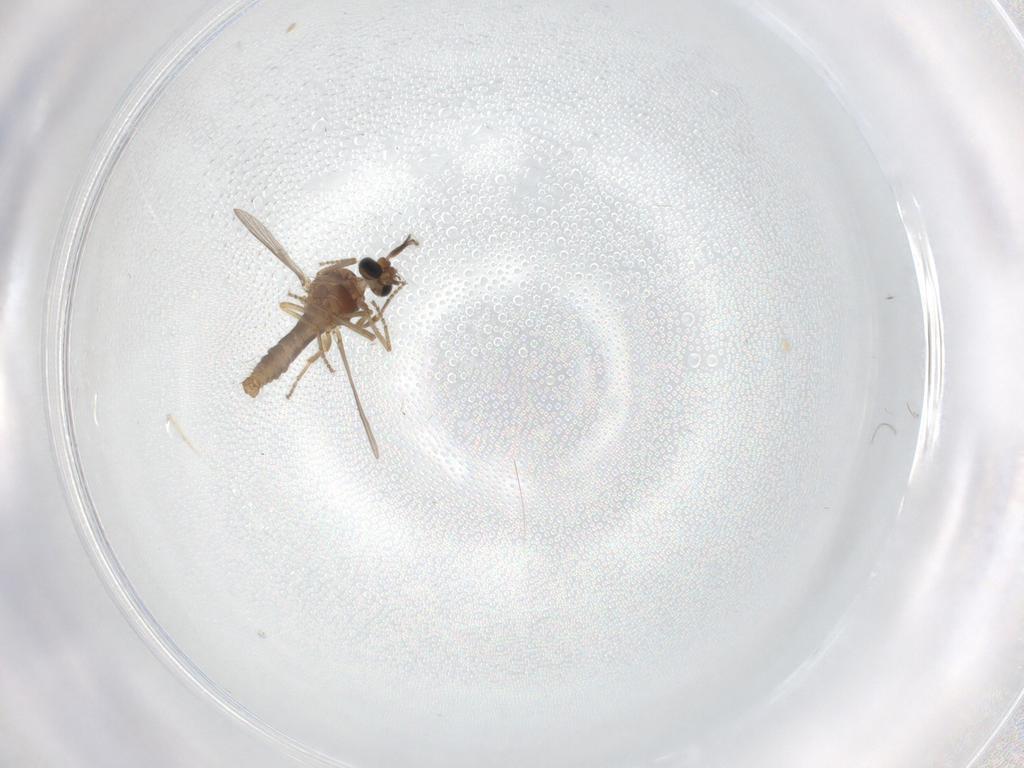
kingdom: Animalia
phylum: Arthropoda
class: Insecta
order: Diptera
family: Ceratopogonidae
